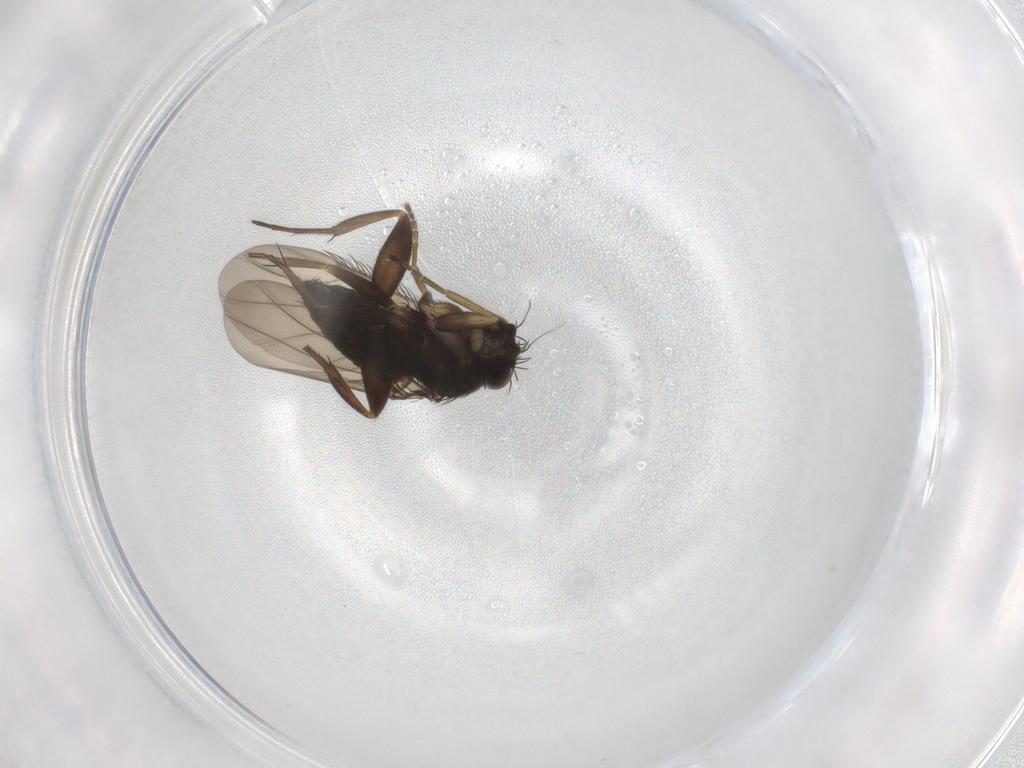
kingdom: Animalia
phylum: Arthropoda
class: Insecta
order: Diptera
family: Phoridae
